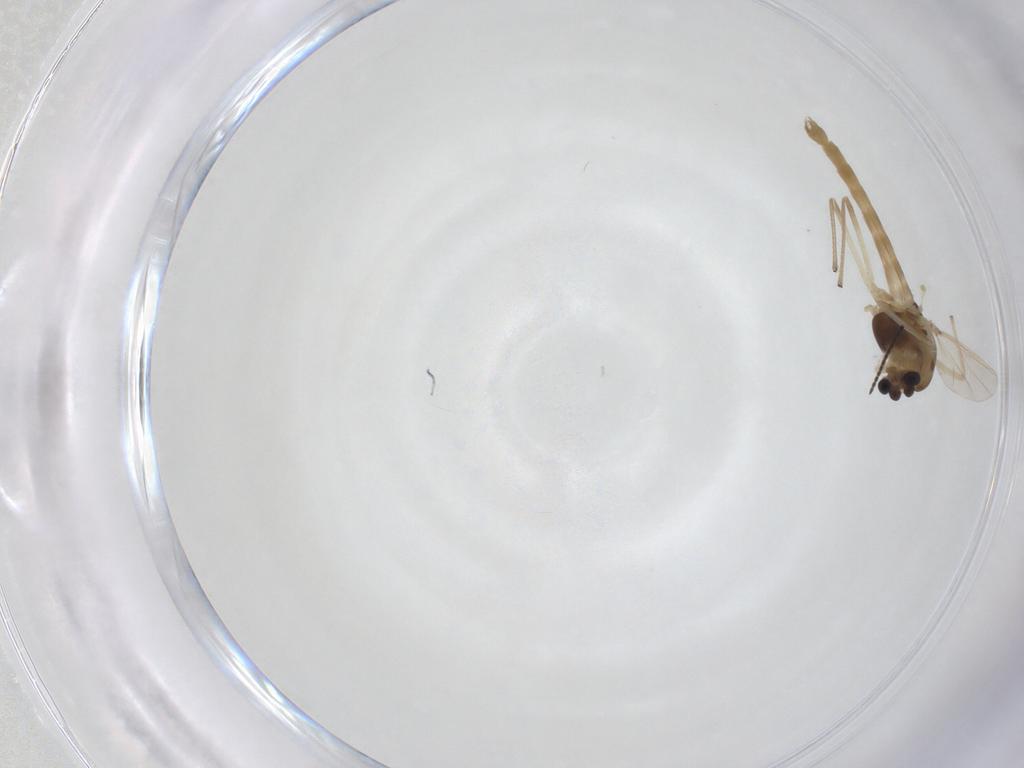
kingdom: Animalia
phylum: Arthropoda
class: Insecta
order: Diptera
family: Chironomidae
